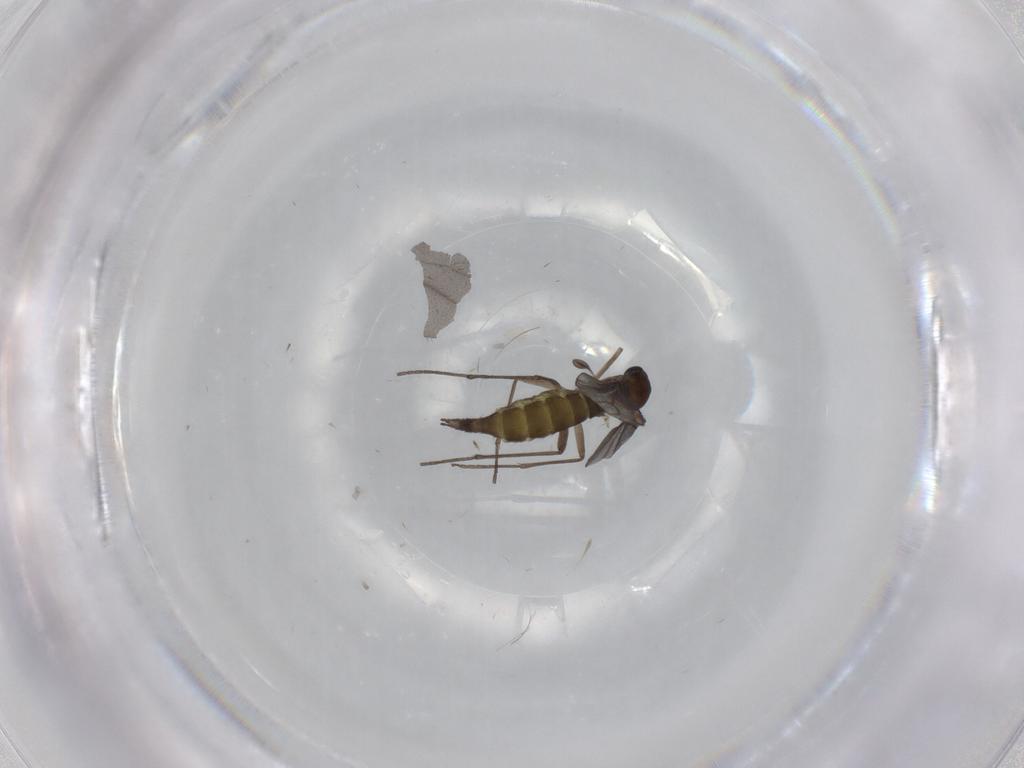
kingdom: Animalia
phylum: Arthropoda
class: Insecta
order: Diptera
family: Sciaridae
